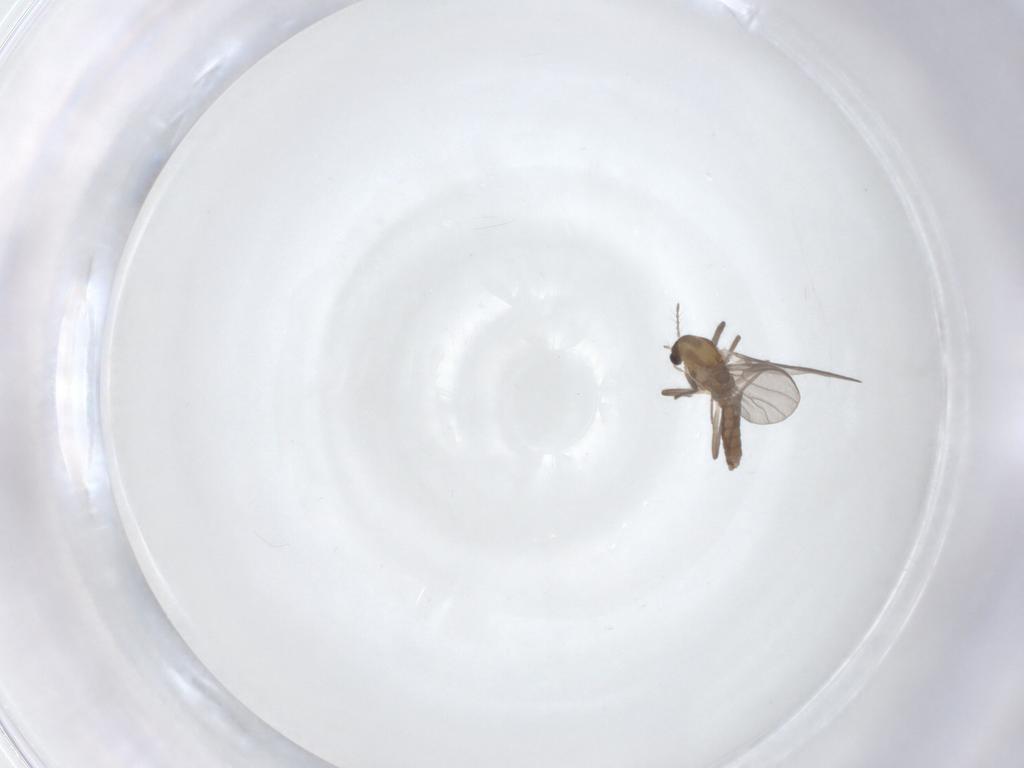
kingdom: Animalia
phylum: Arthropoda
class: Insecta
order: Diptera
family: Chironomidae
